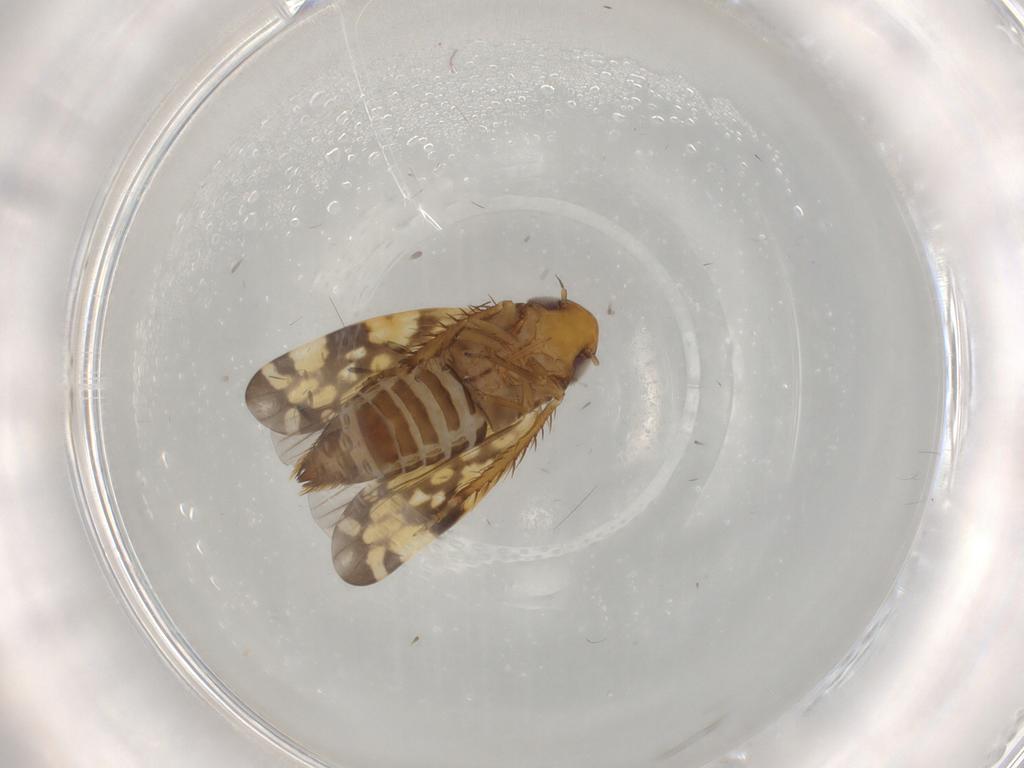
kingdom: Animalia
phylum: Arthropoda
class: Insecta
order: Hemiptera
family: Cicadellidae
